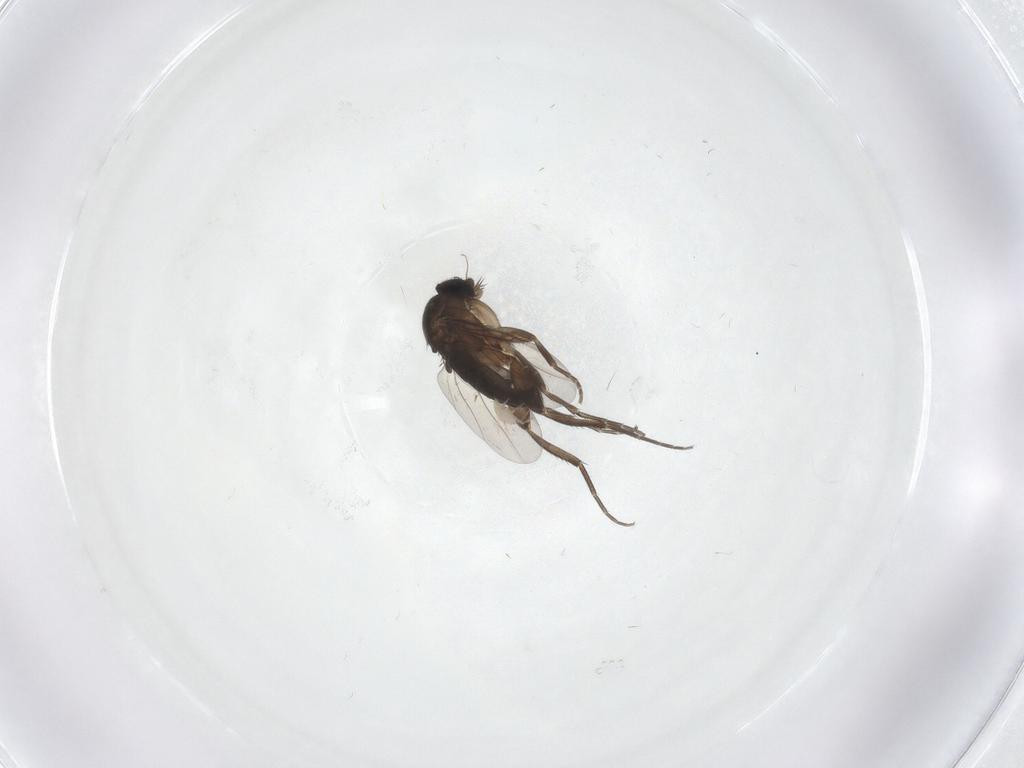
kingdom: Animalia
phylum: Arthropoda
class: Insecta
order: Diptera
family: Phoridae
